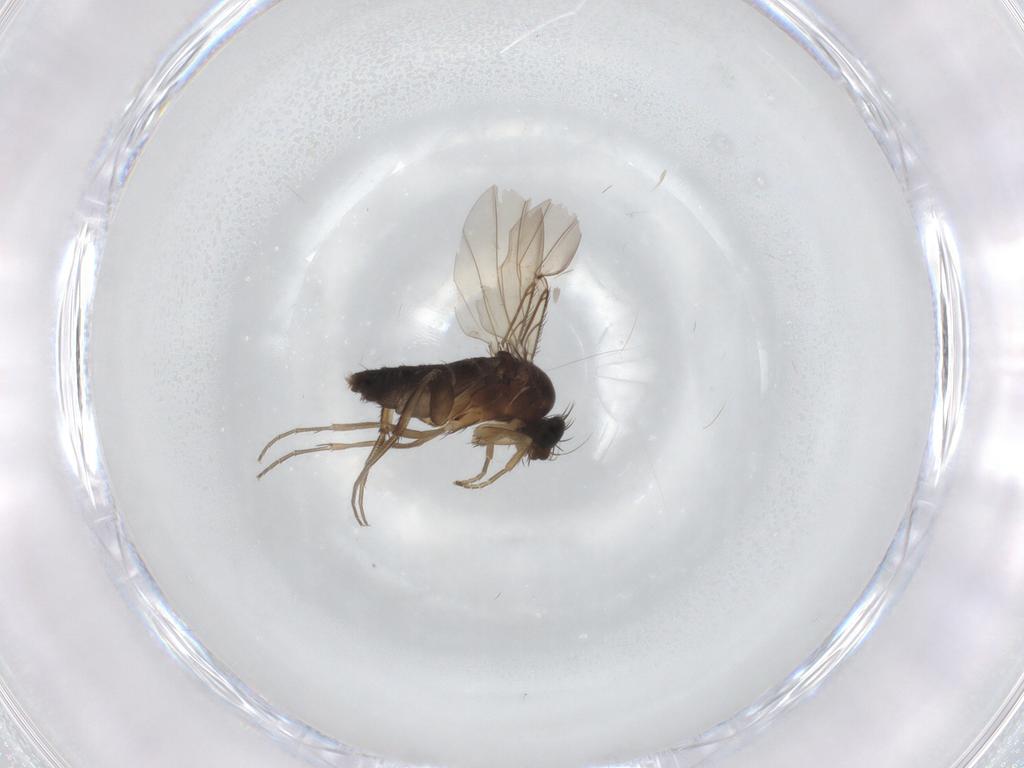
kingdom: Animalia
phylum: Arthropoda
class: Insecta
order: Diptera
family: Phoridae
